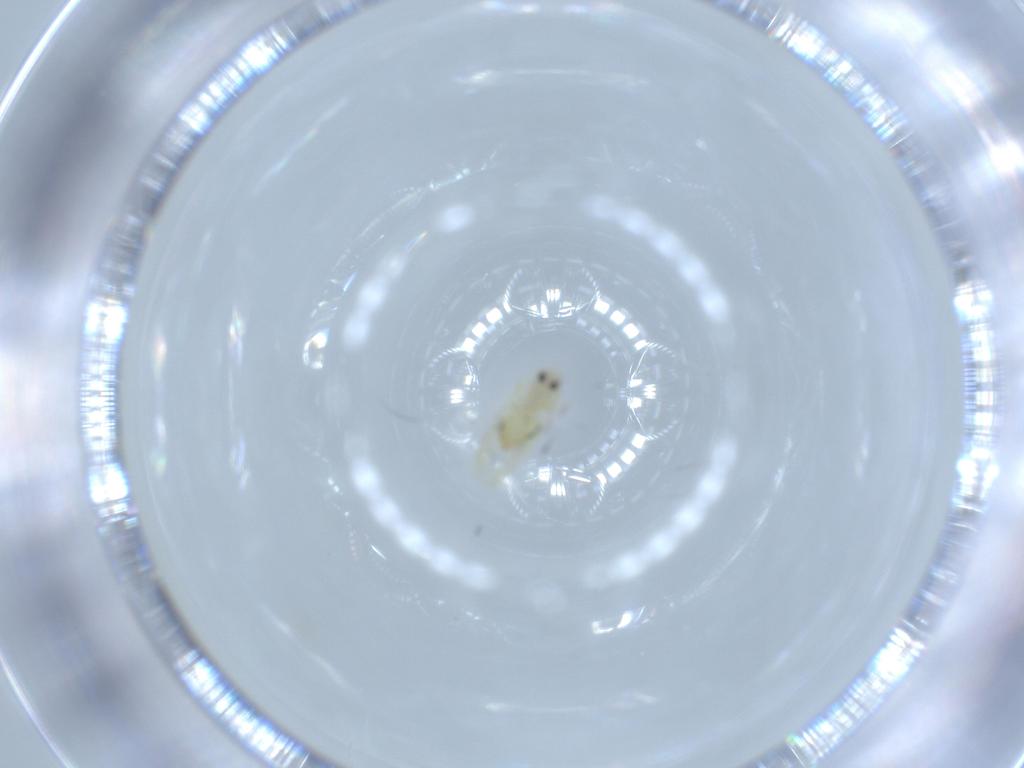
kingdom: Animalia
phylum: Arthropoda
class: Insecta
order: Hemiptera
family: Aleyrodidae
